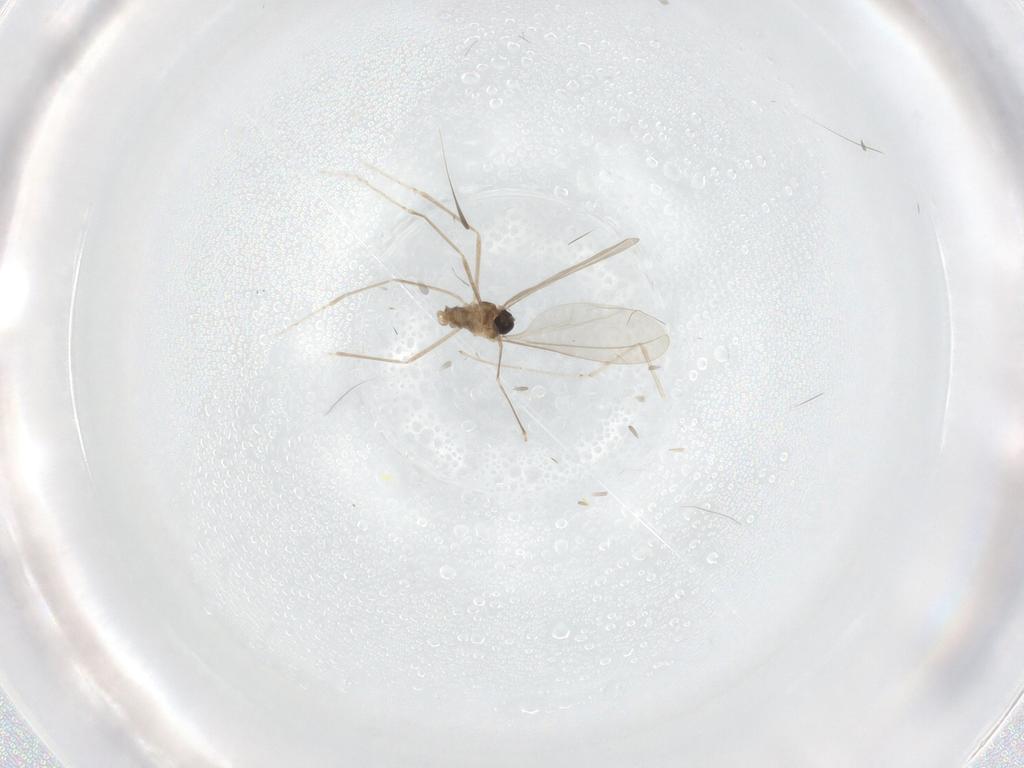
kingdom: Animalia
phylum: Arthropoda
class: Insecta
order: Diptera
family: Cecidomyiidae
